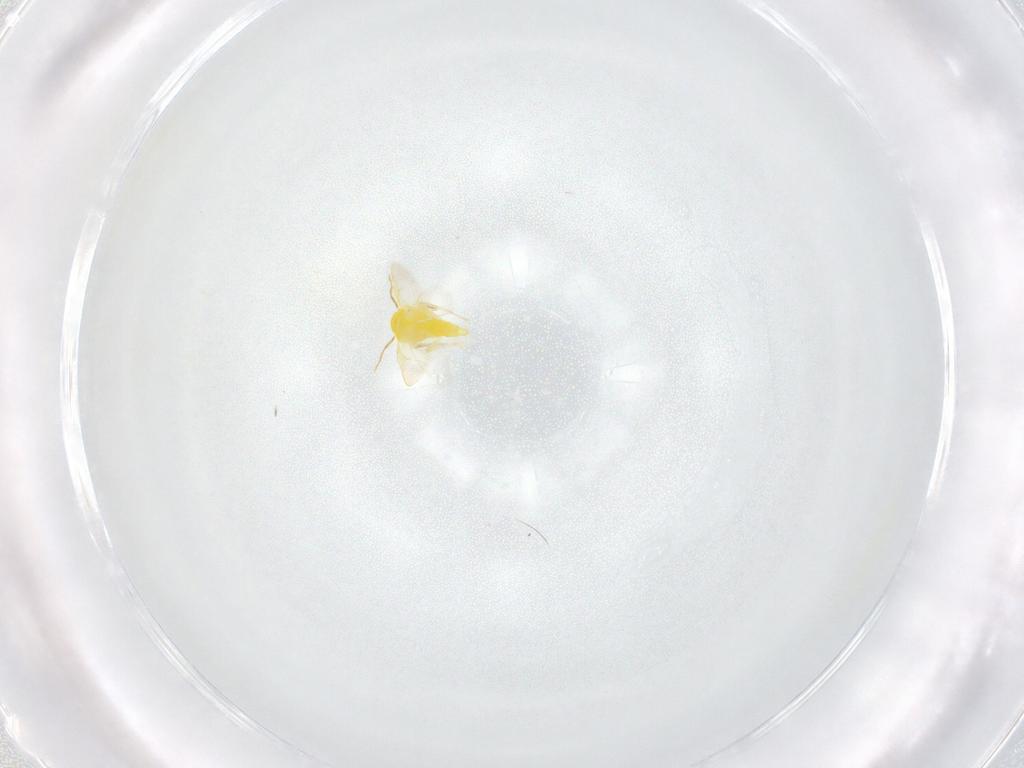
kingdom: Animalia
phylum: Arthropoda
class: Insecta
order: Hemiptera
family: Aleyrodidae
